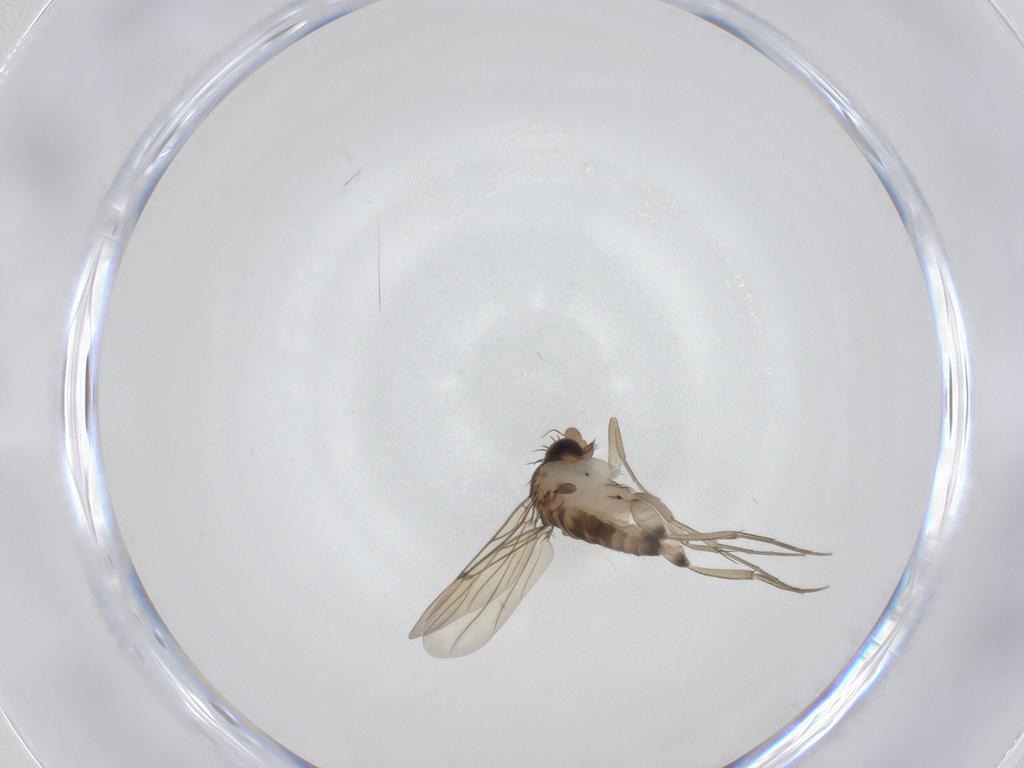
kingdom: Animalia
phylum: Arthropoda
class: Insecta
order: Diptera
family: Phoridae
